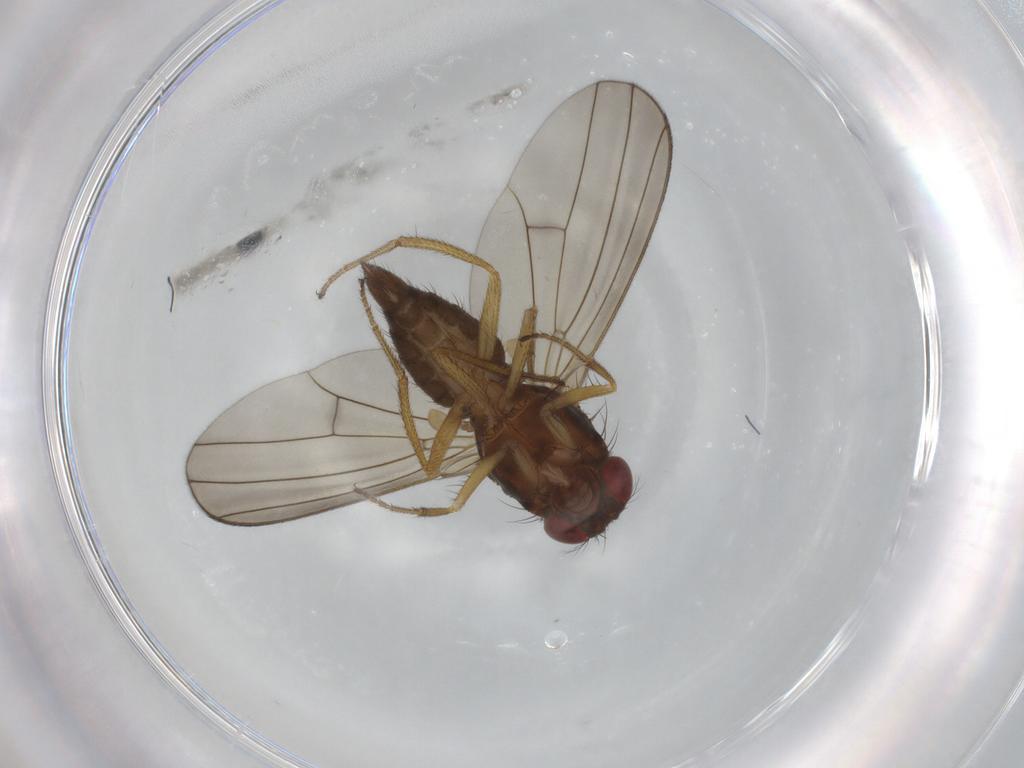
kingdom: Animalia
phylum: Arthropoda
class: Insecta
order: Diptera
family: Drosophilidae
